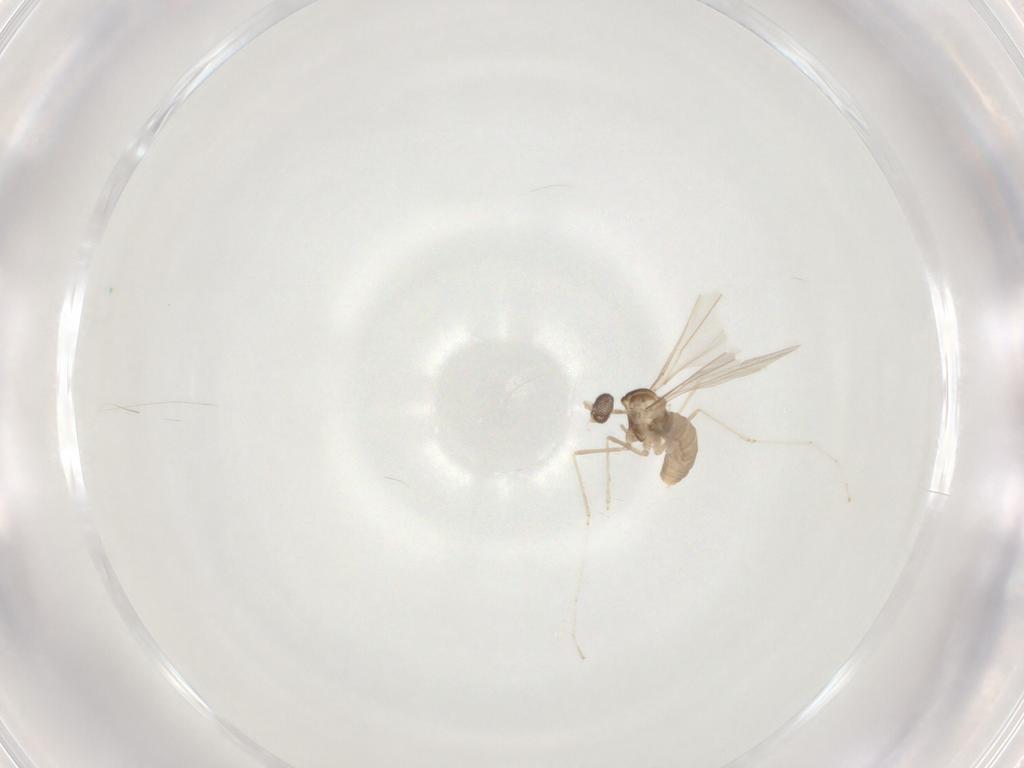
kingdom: Animalia
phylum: Arthropoda
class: Insecta
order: Diptera
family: Cecidomyiidae
